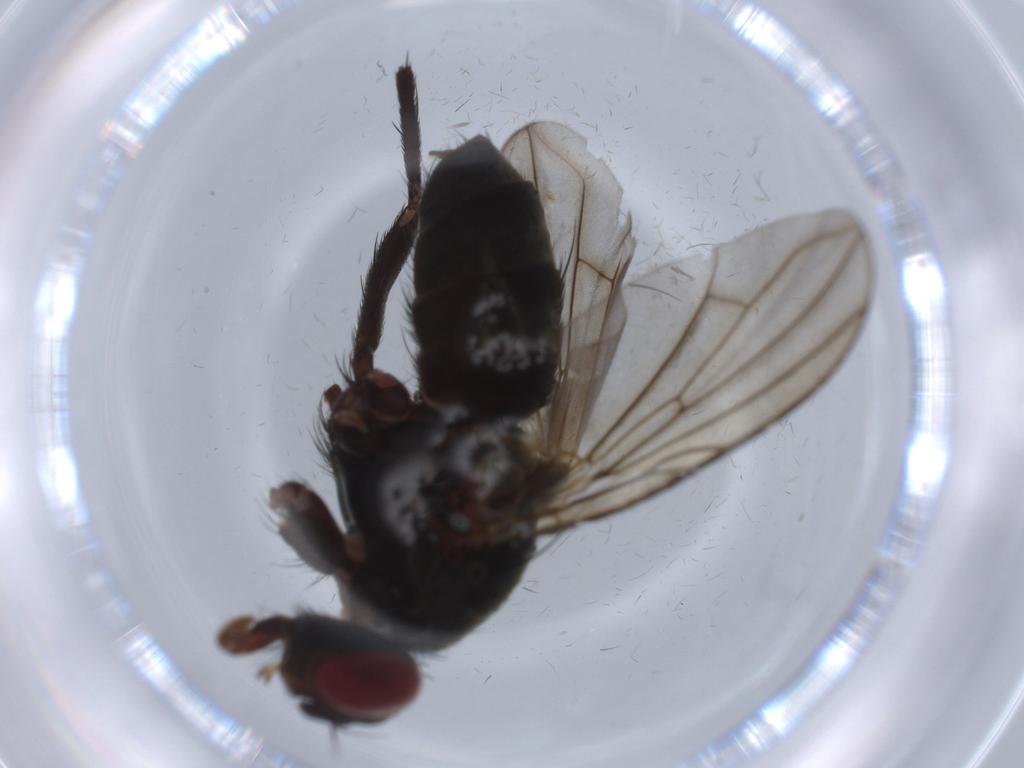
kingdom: Animalia
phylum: Arthropoda
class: Insecta
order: Diptera
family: Calliphoridae
